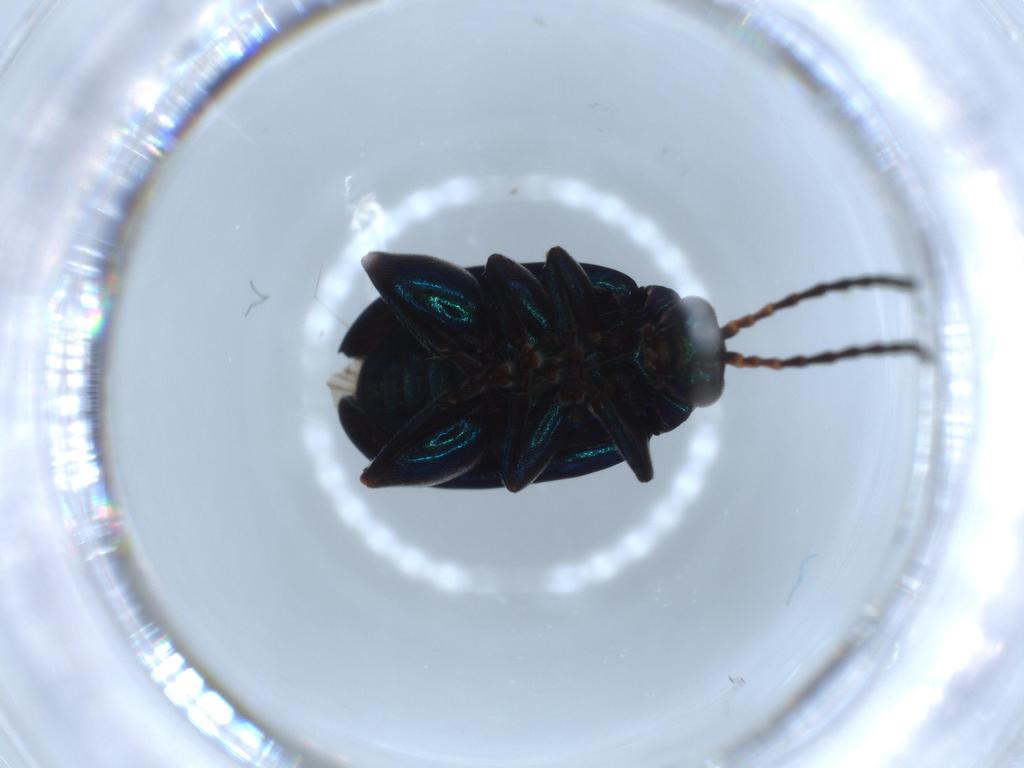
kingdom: Animalia
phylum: Arthropoda
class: Insecta
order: Coleoptera
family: Chrysomelidae
